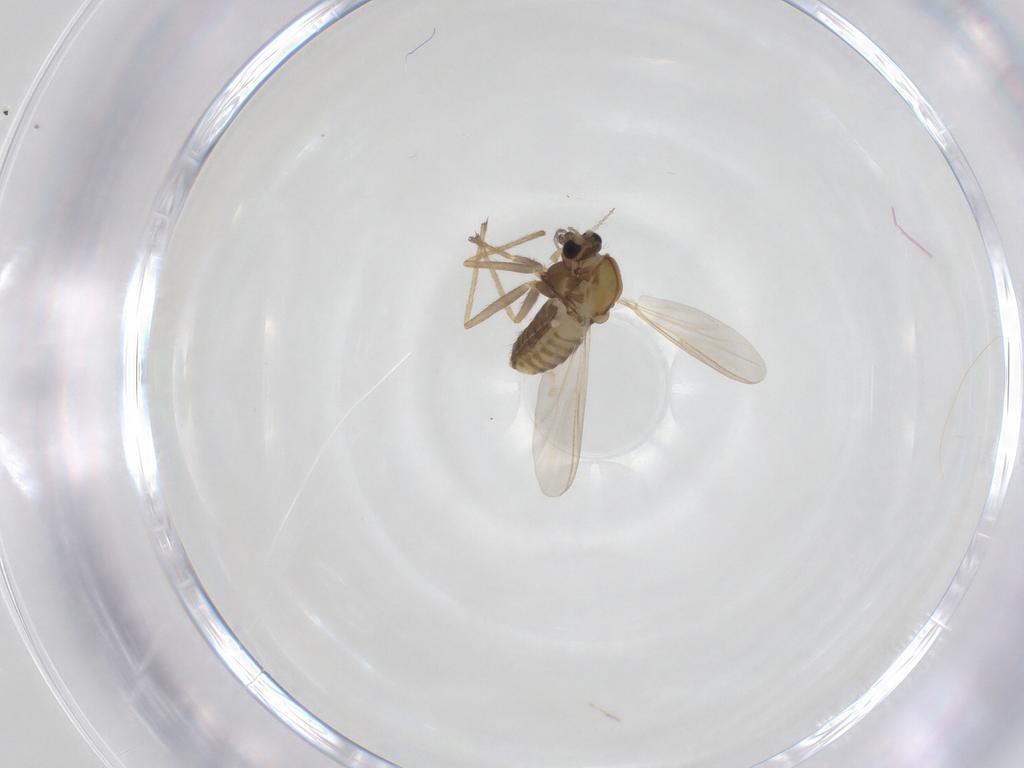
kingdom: Animalia
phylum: Arthropoda
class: Insecta
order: Diptera
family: Chironomidae
